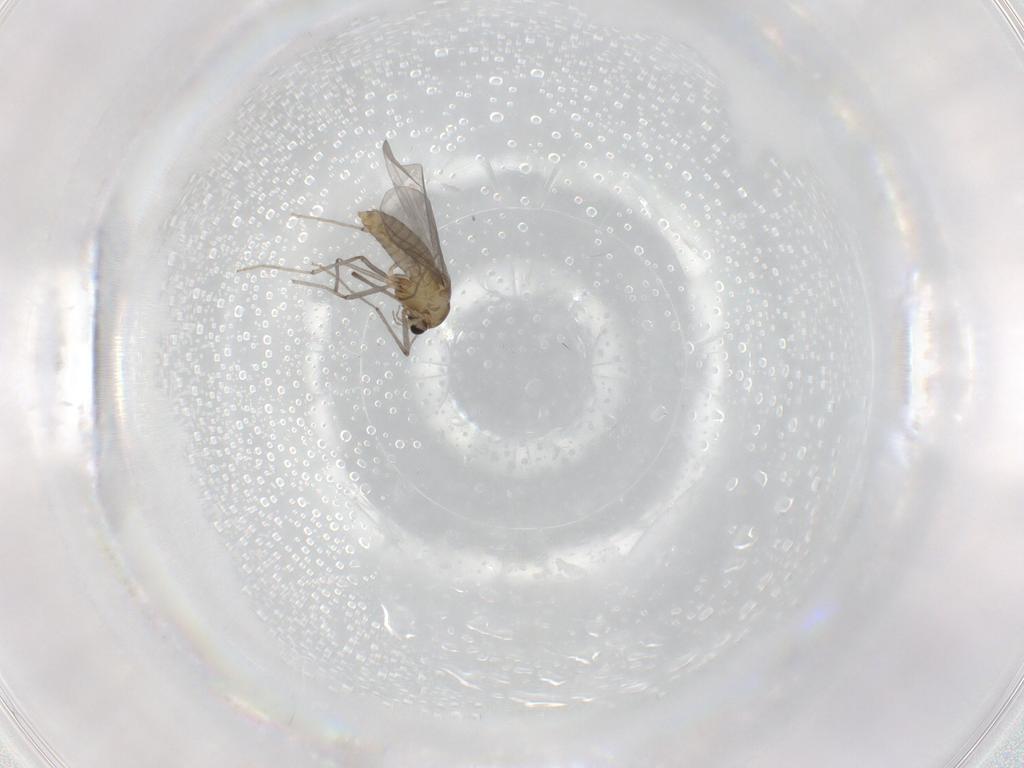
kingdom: Animalia
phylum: Arthropoda
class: Insecta
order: Diptera
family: Chironomidae
